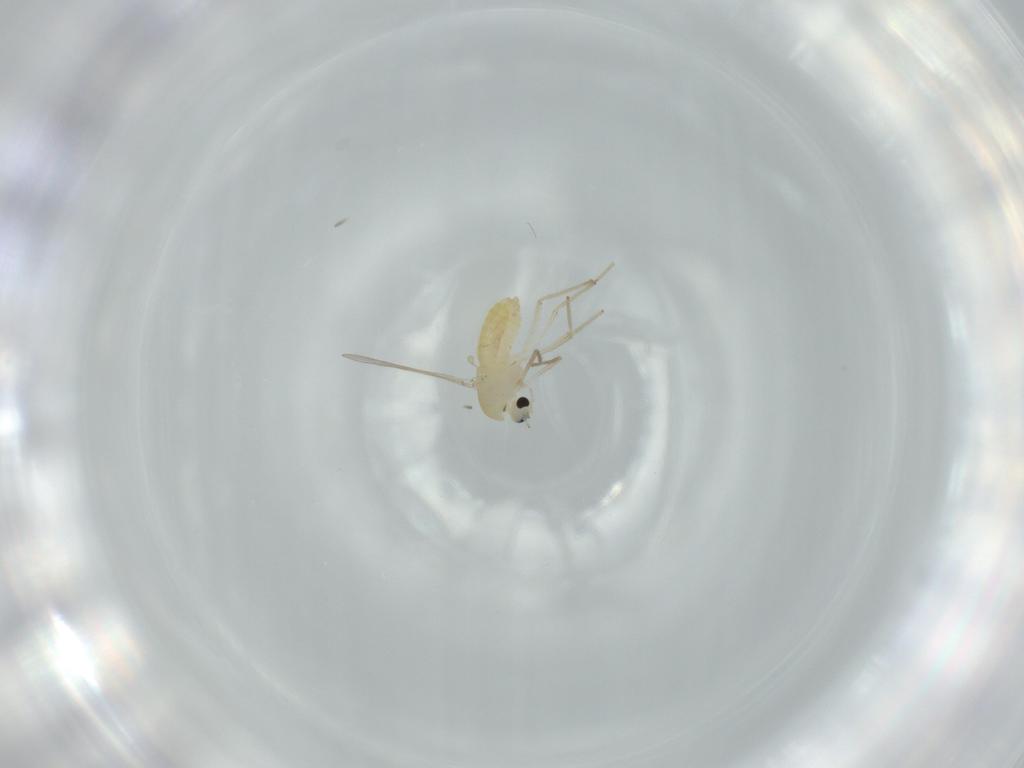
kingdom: Animalia
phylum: Arthropoda
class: Insecta
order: Diptera
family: Chironomidae
